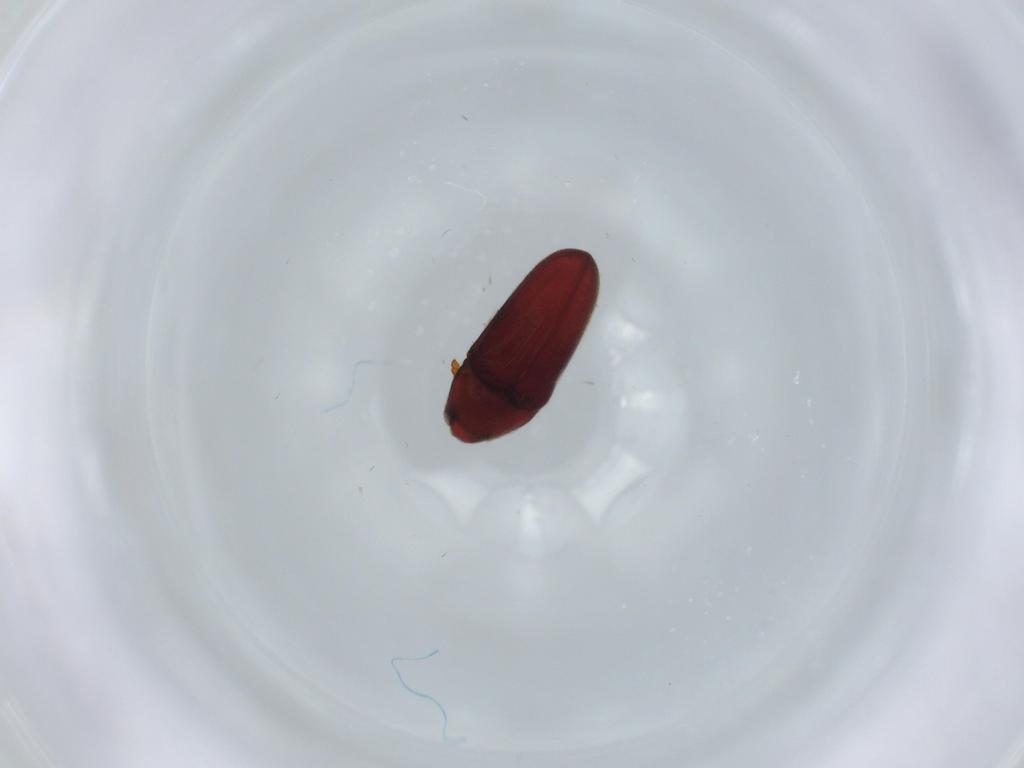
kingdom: Animalia
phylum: Arthropoda
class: Insecta
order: Coleoptera
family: Throscidae
